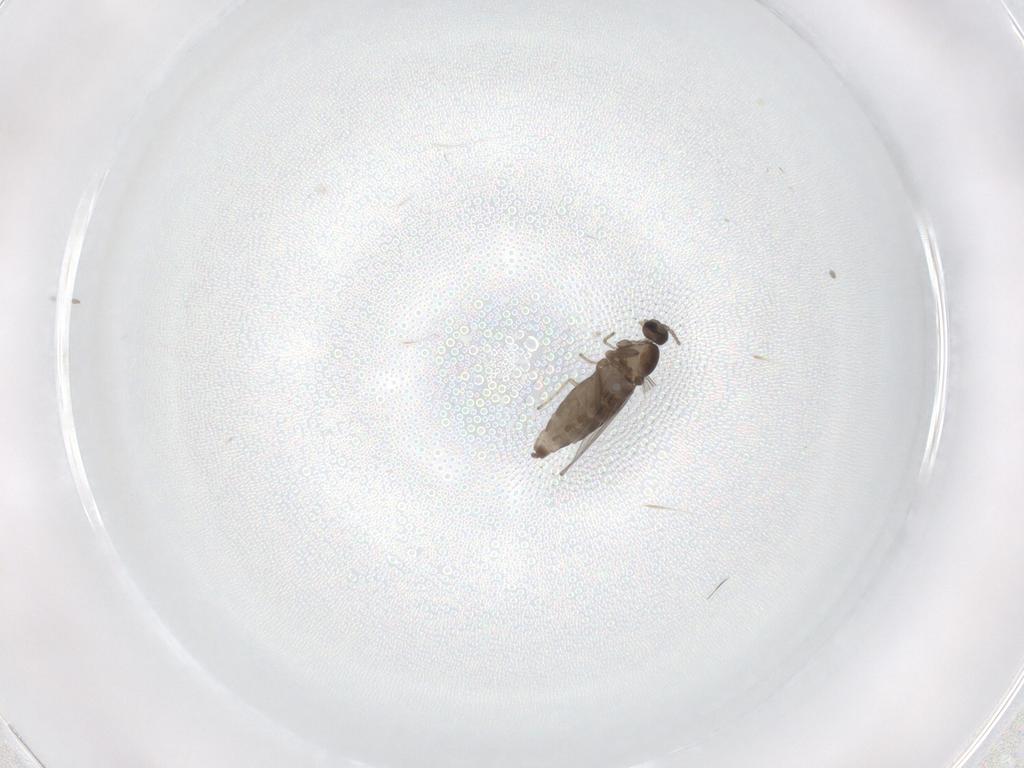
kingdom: Animalia
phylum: Arthropoda
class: Insecta
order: Diptera
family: Cecidomyiidae
